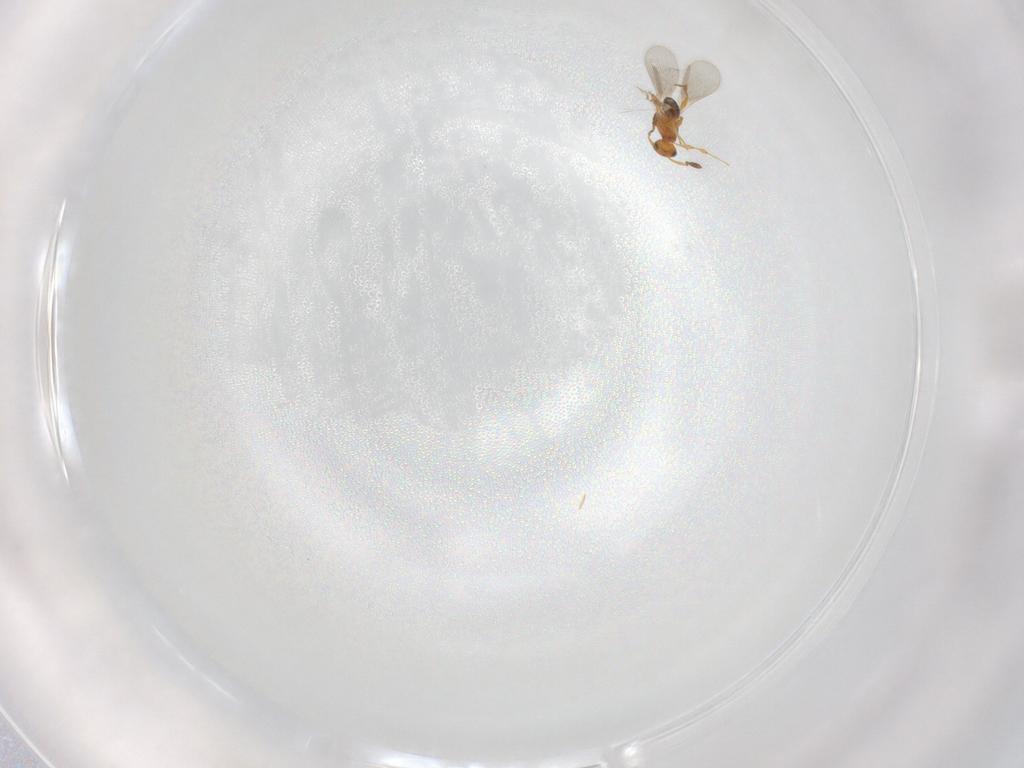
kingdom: Animalia
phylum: Arthropoda
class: Insecta
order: Hymenoptera
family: Platygastridae
